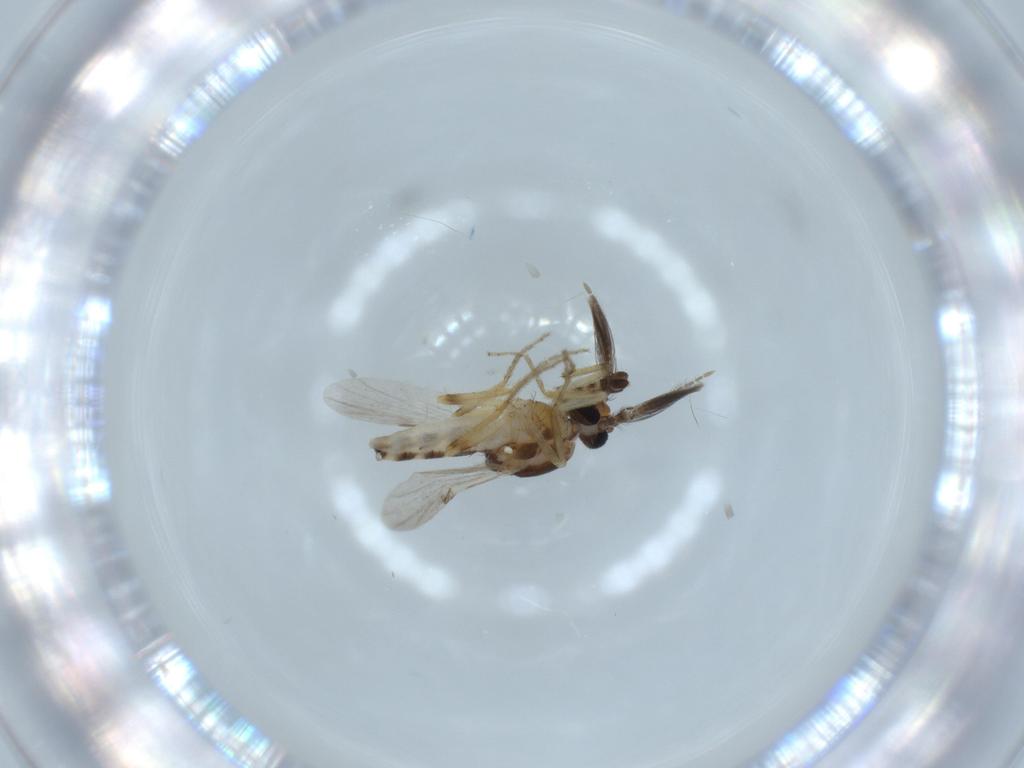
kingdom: Animalia
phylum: Arthropoda
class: Insecta
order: Diptera
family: Ceratopogonidae
